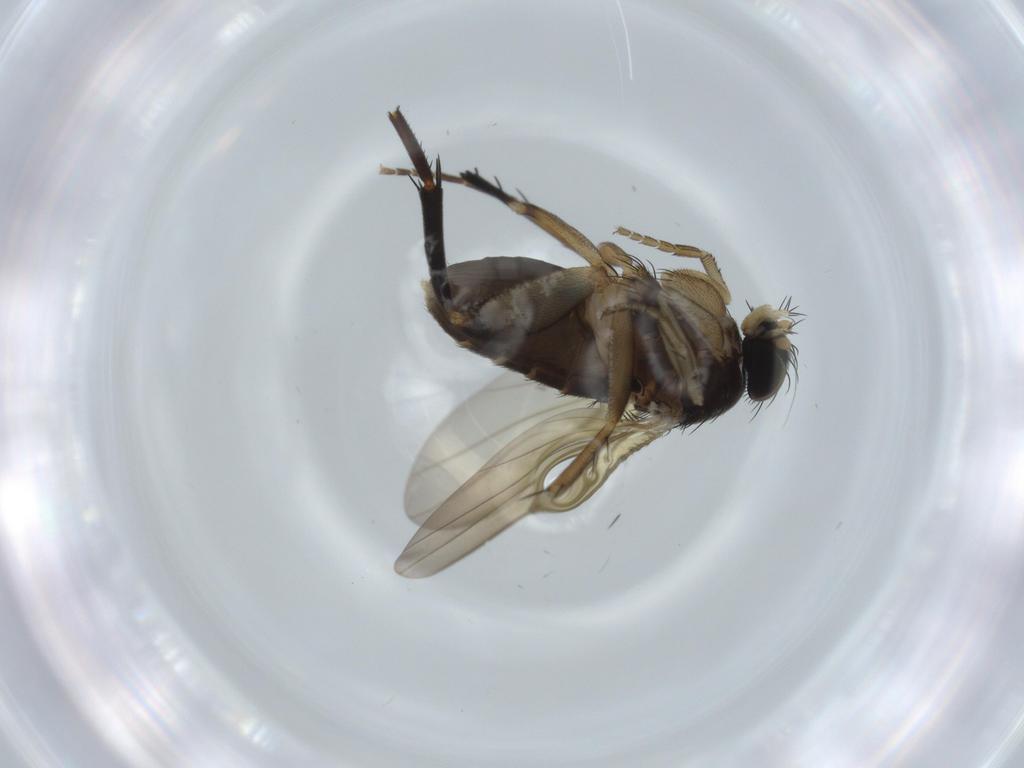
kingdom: Animalia
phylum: Arthropoda
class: Insecta
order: Diptera
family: Phoridae
